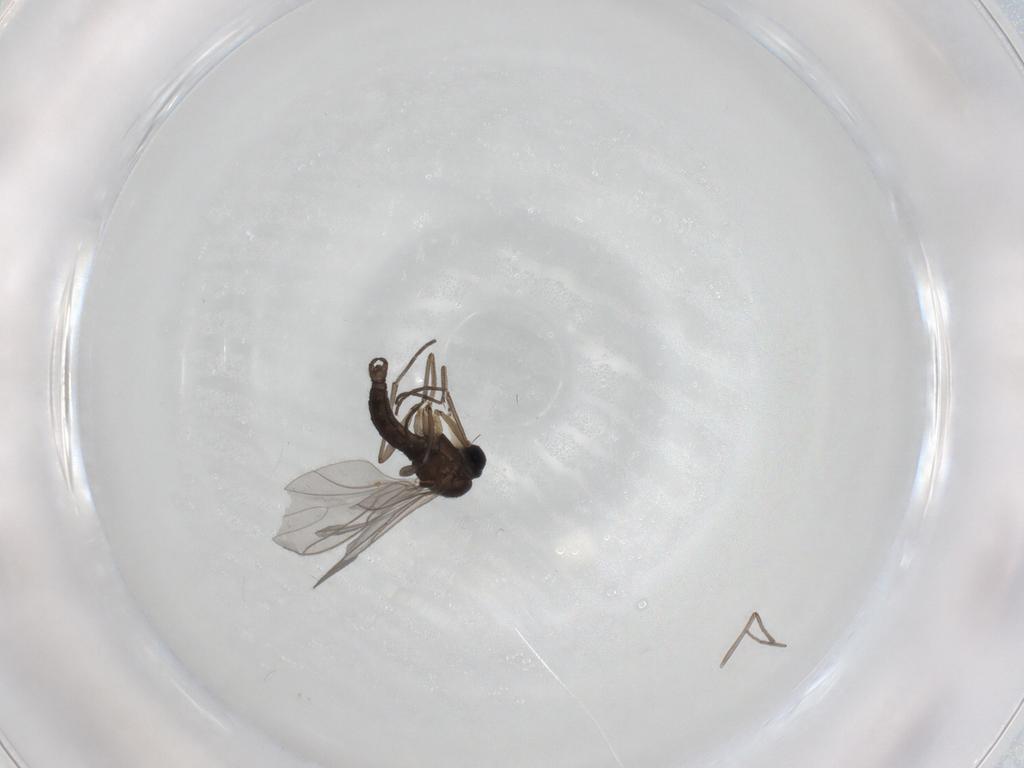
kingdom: Animalia
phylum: Arthropoda
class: Insecta
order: Diptera
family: Sciaridae
